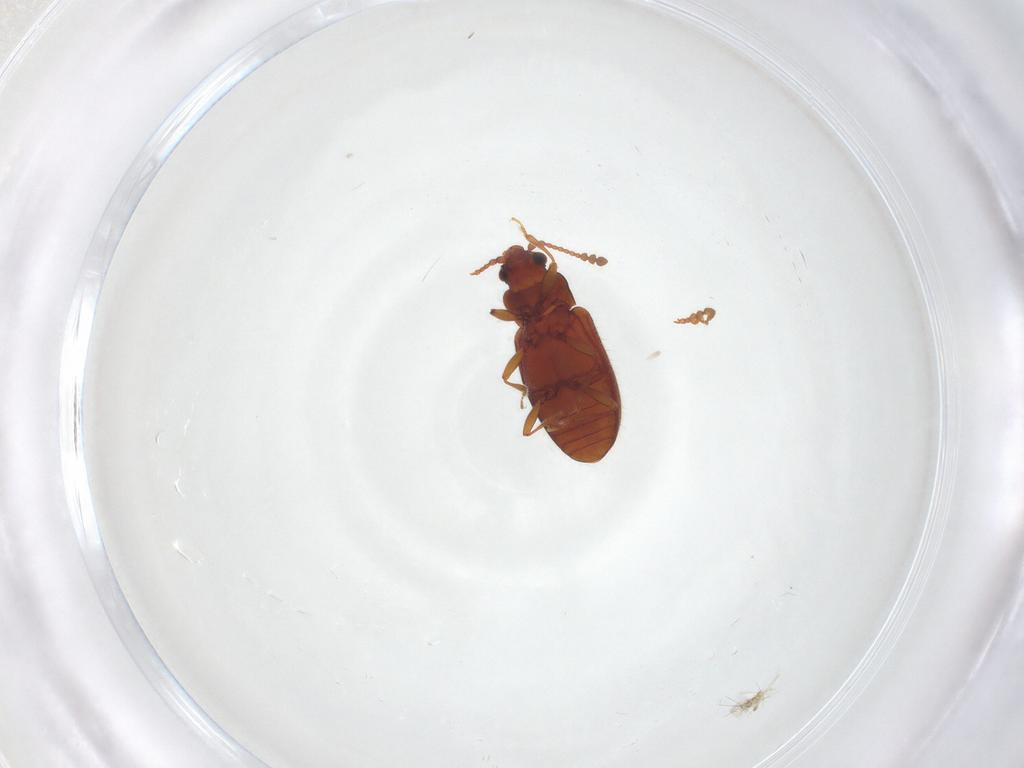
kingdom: Animalia
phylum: Arthropoda
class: Insecta
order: Coleoptera
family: Cryptophagidae
